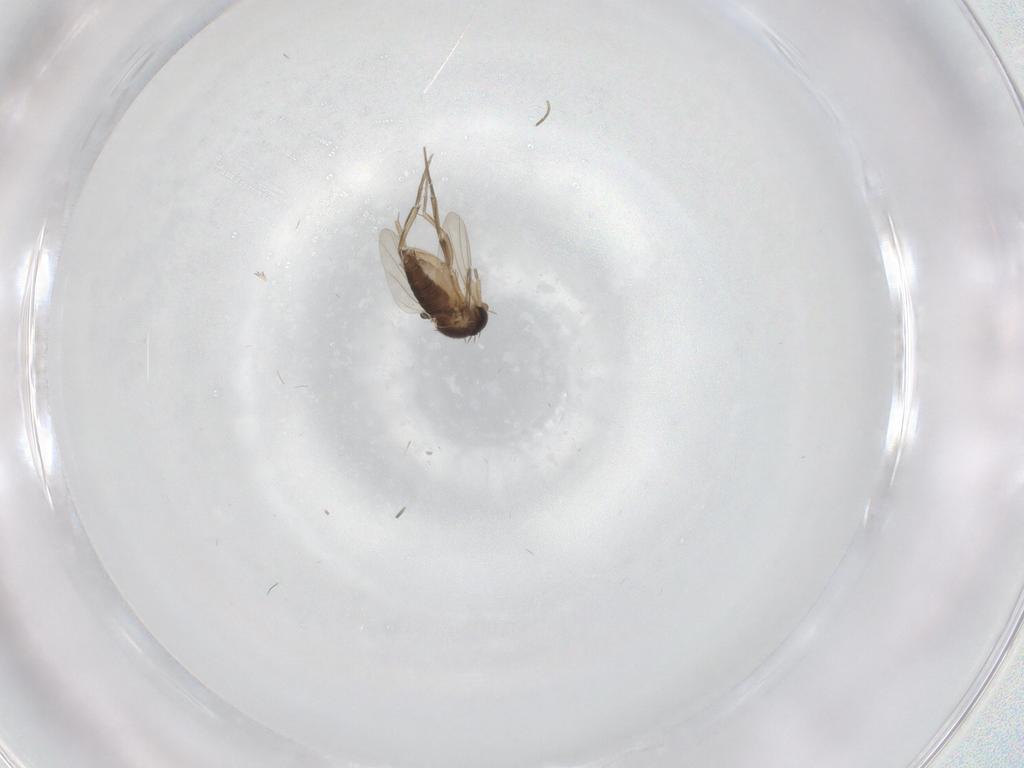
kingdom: Animalia
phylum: Arthropoda
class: Insecta
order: Diptera
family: Phoridae
